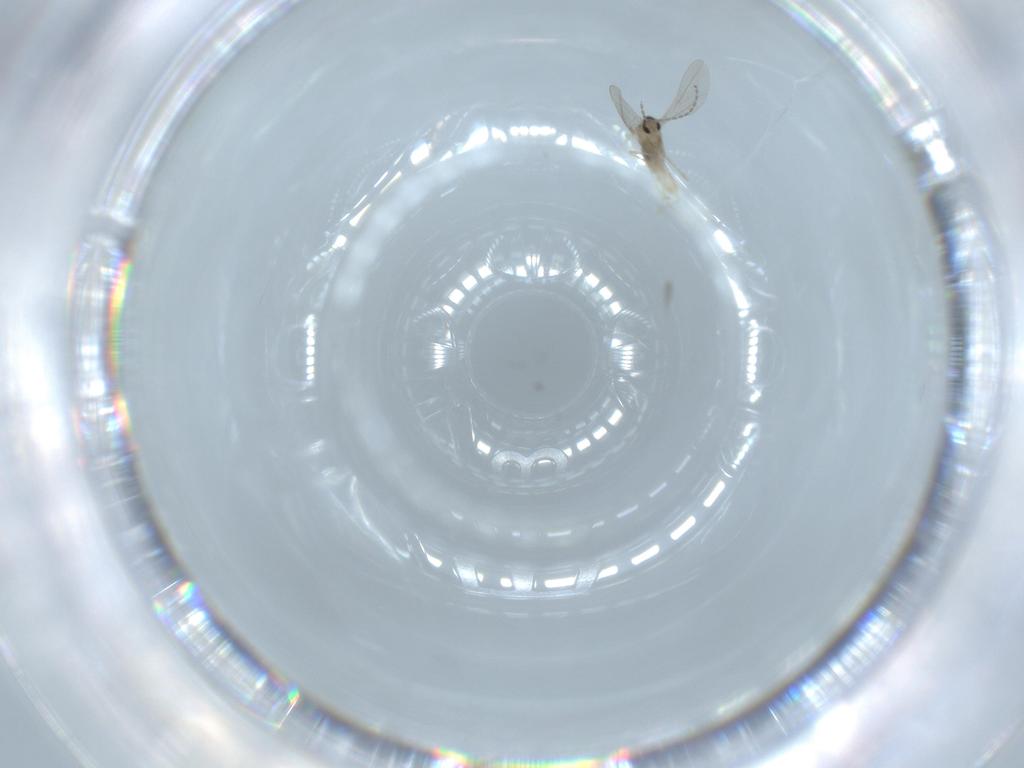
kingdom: Animalia
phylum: Arthropoda
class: Insecta
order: Diptera
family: Cecidomyiidae
